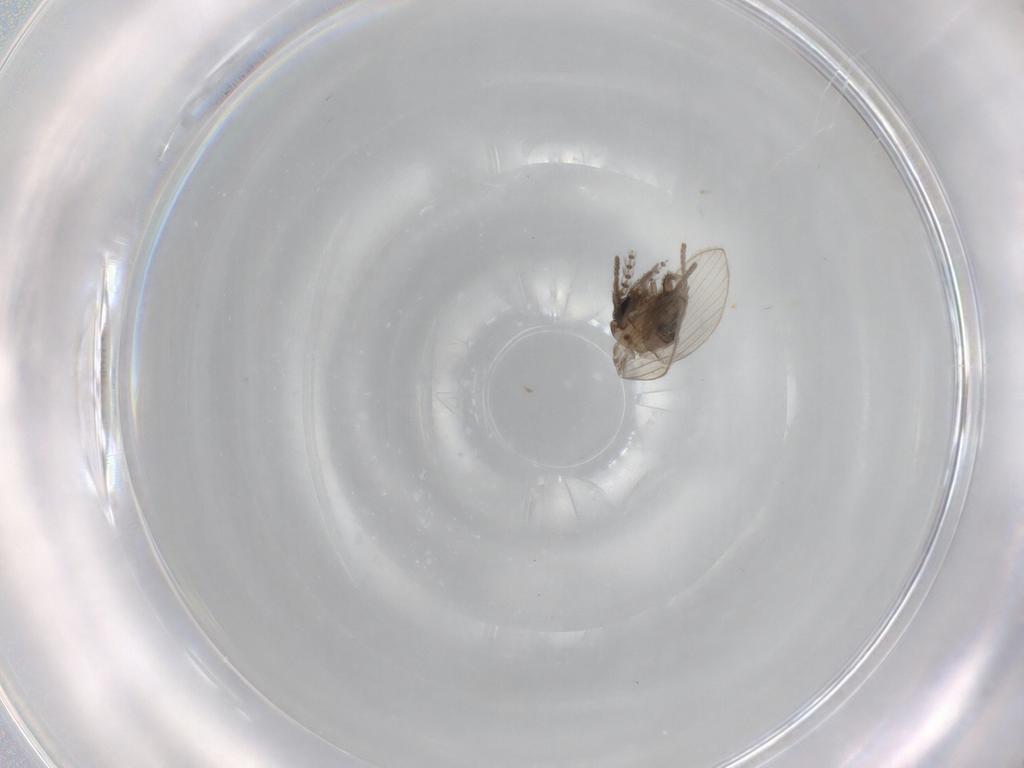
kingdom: Animalia
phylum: Arthropoda
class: Insecta
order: Diptera
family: Psychodidae
